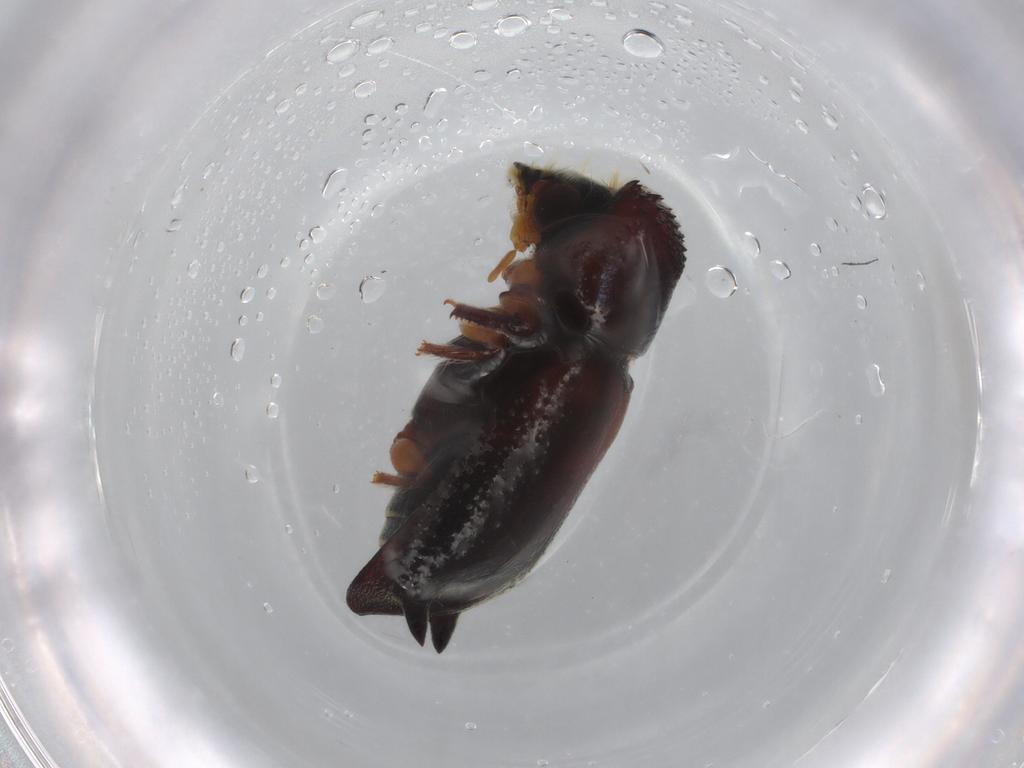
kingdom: Animalia
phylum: Arthropoda
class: Insecta
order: Coleoptera
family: Bostrichidae
